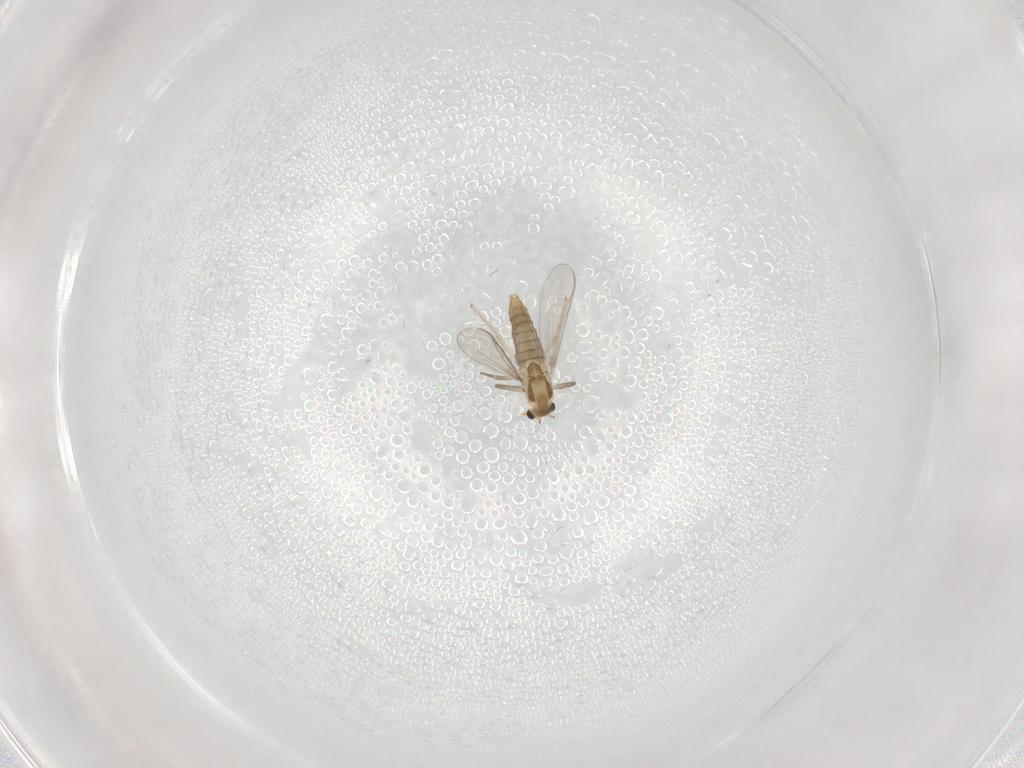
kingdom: Animalia
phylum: Arthropoda
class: Insecta
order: Diptera
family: Chironomidae
